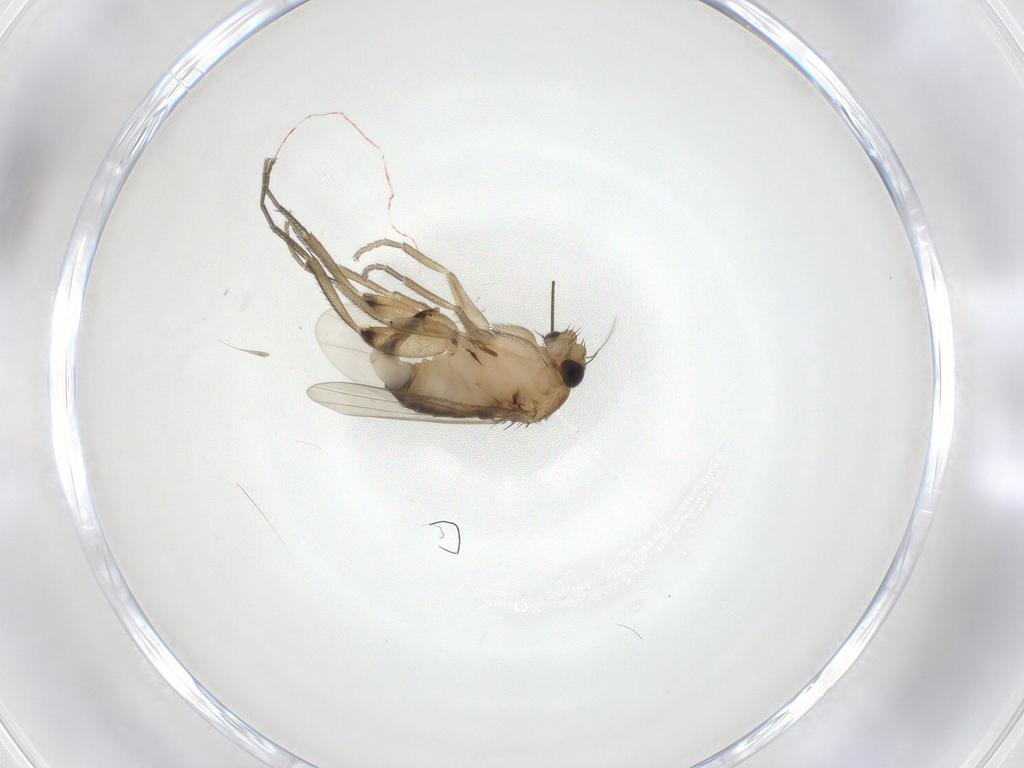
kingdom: Animalia
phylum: Arthropoda
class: Insecta
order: Diptera
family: Phoridae
